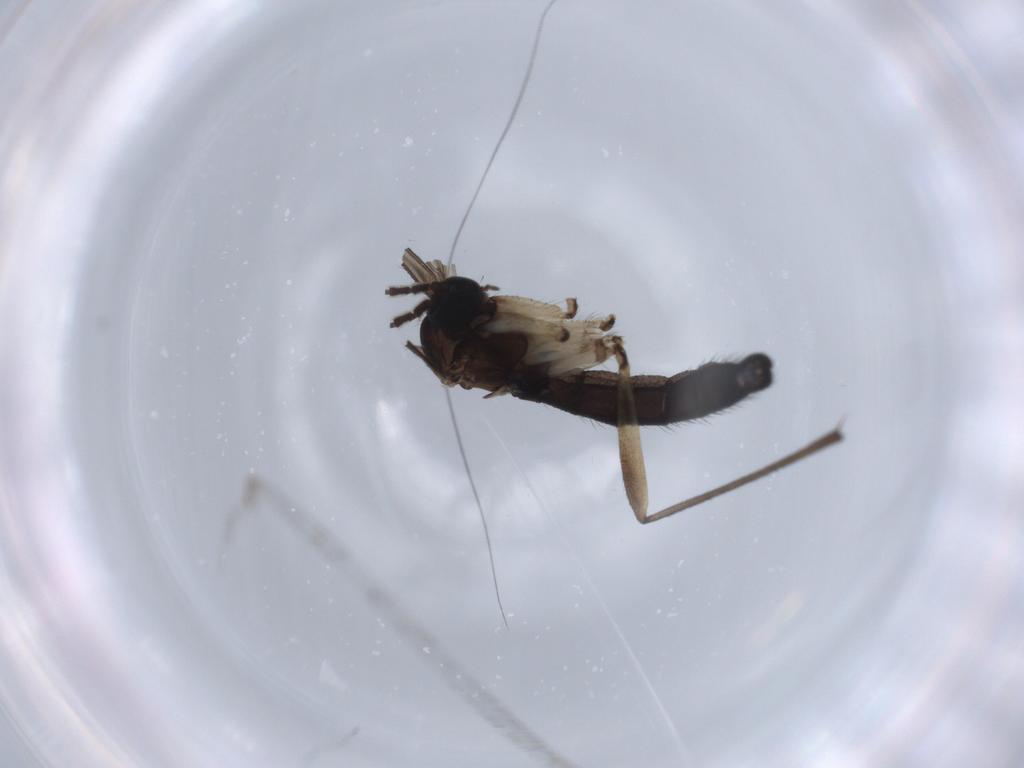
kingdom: Animalia
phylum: Arthropoda
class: Insecta
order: Diptera
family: Sciaridae
